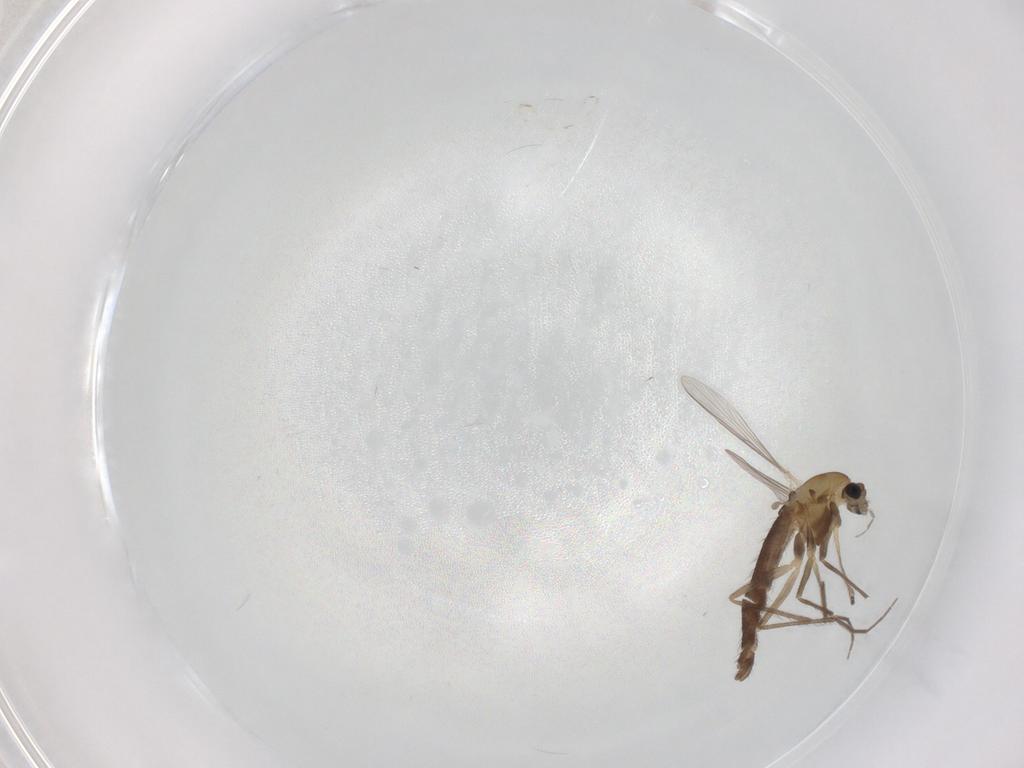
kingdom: Animalia
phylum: Arthropoda
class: Insecta
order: Diptera
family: Chironomidae
